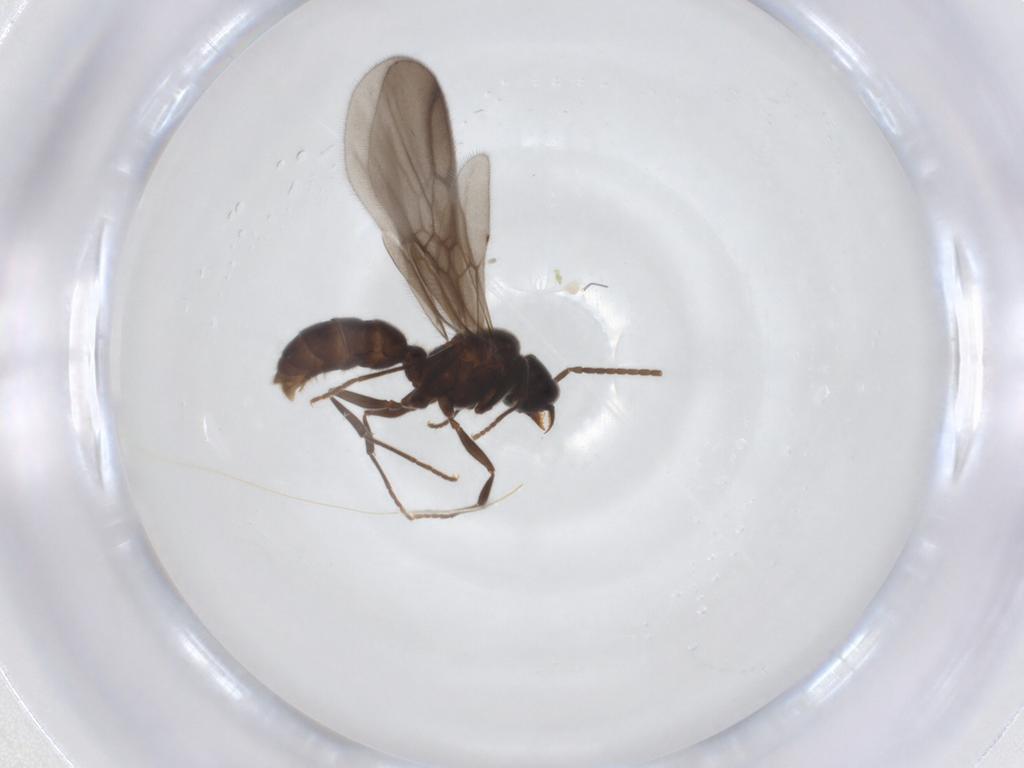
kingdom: Animalia
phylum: Arthropoda
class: Insecta
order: Hymenoptera
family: Formicidae
